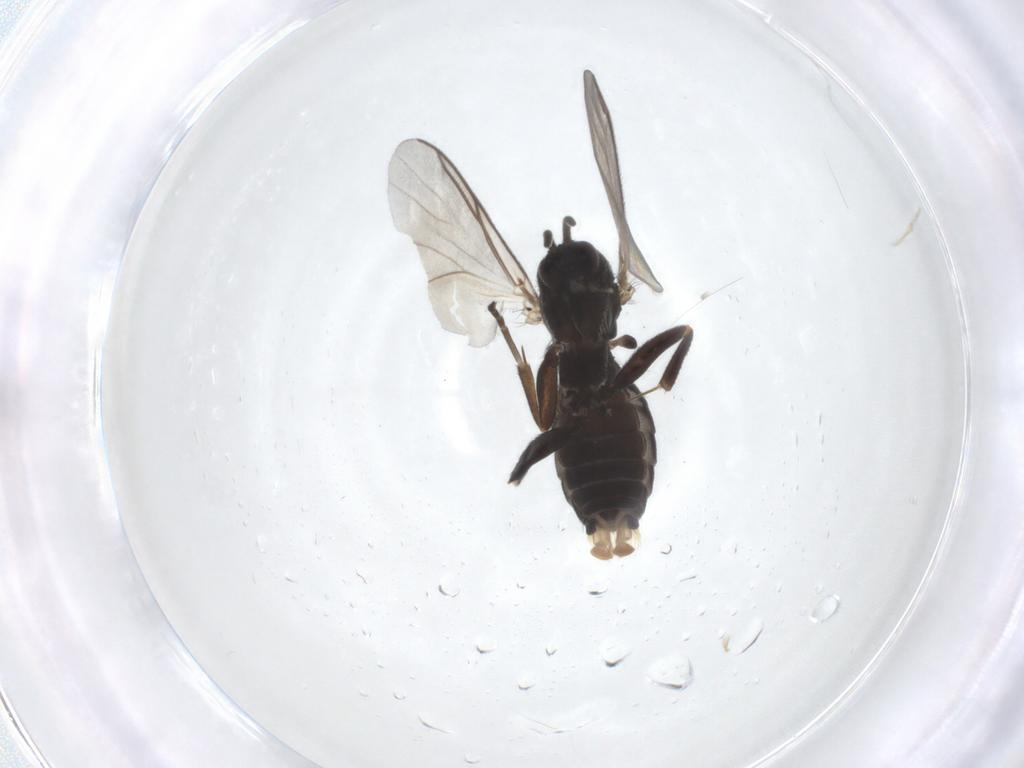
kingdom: Animalia
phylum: Arthropoda
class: Insecta
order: Diptera
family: Mycetophilidae
